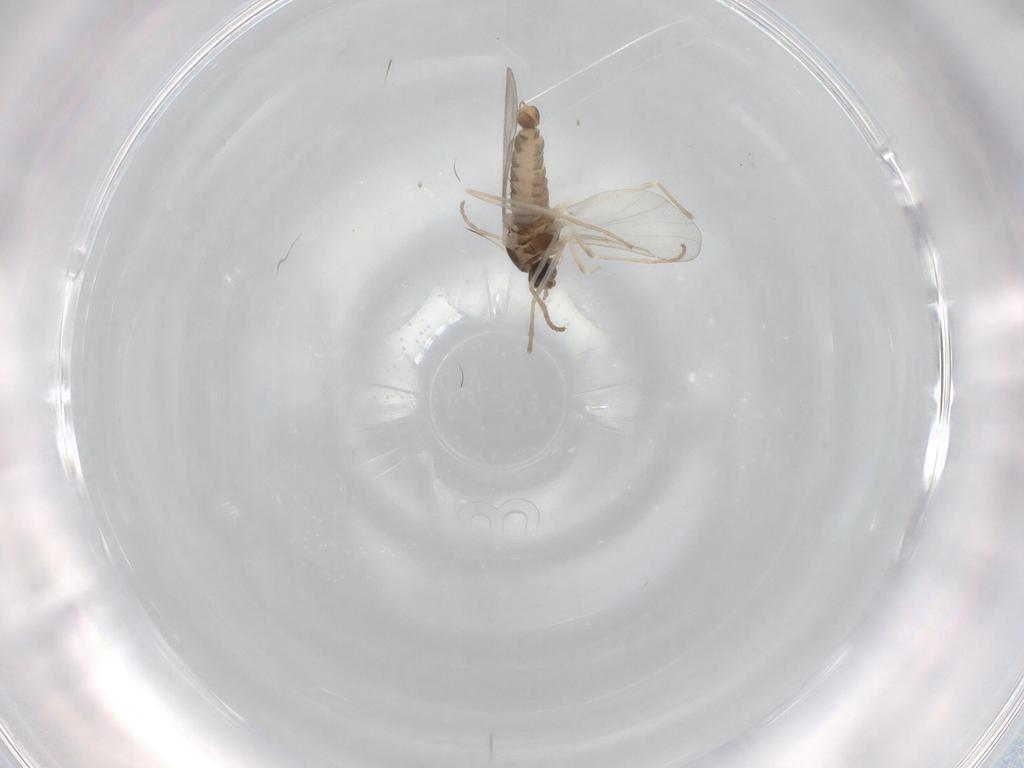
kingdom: Animalia
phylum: Arthropoda
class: Insecta
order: Diptera
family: Cecidomyiidae
